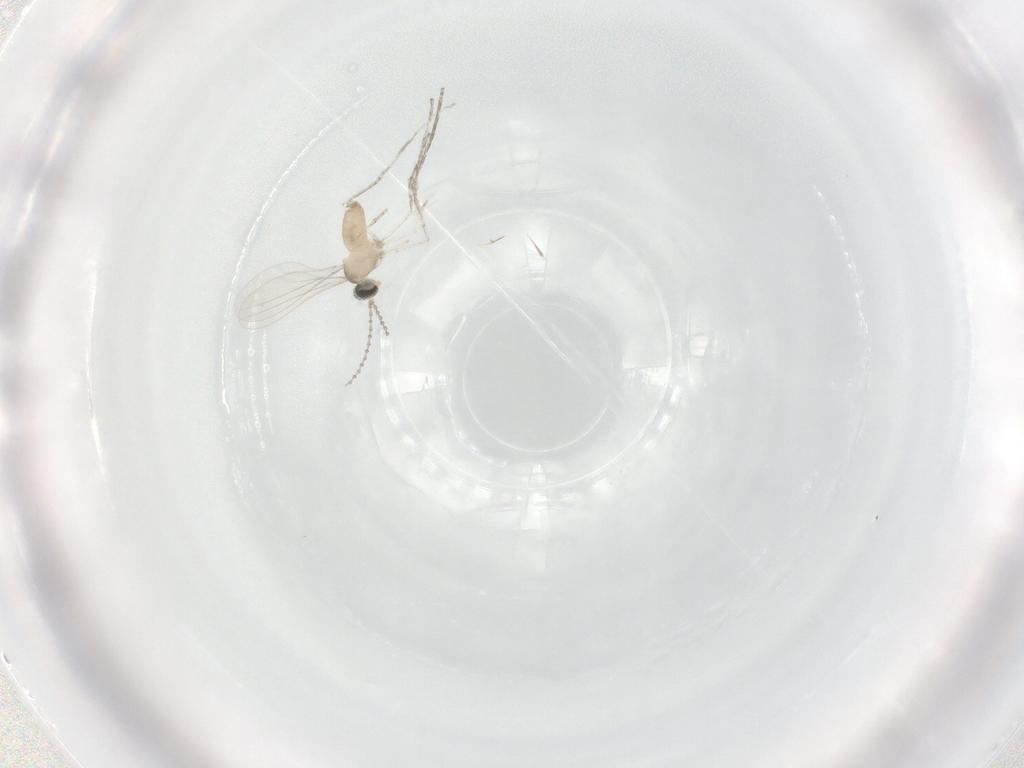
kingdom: Animalia
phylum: Arthropoda
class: Insecta
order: Diptera
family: Cecidomyiidae
